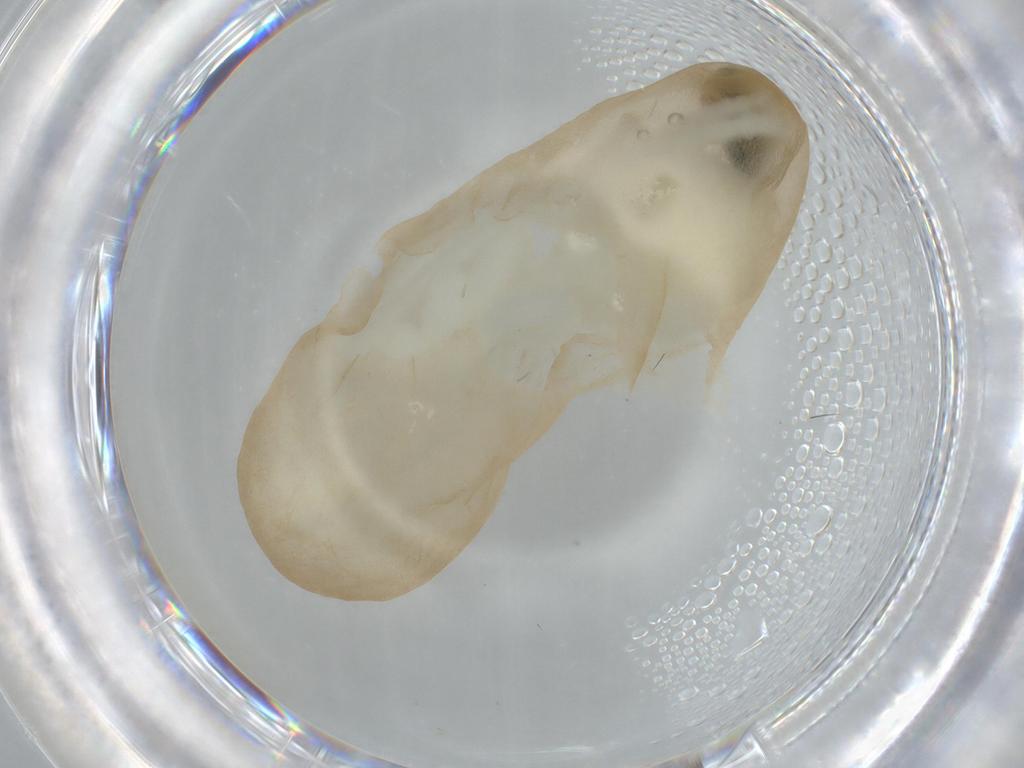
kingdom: Animalia
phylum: Arthropoda
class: Insecta
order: Diptera
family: Cecidomyiidae
